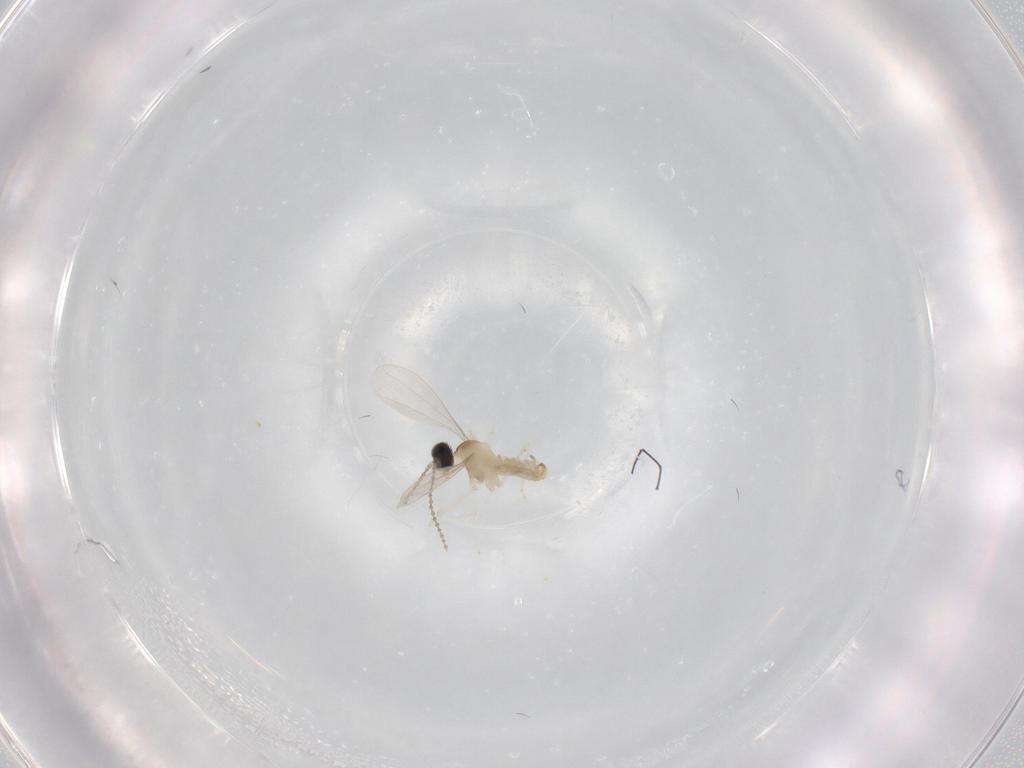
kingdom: Animalia
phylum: Arthropoda
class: Insecta
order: Diptera
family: Cecidomyiidae
